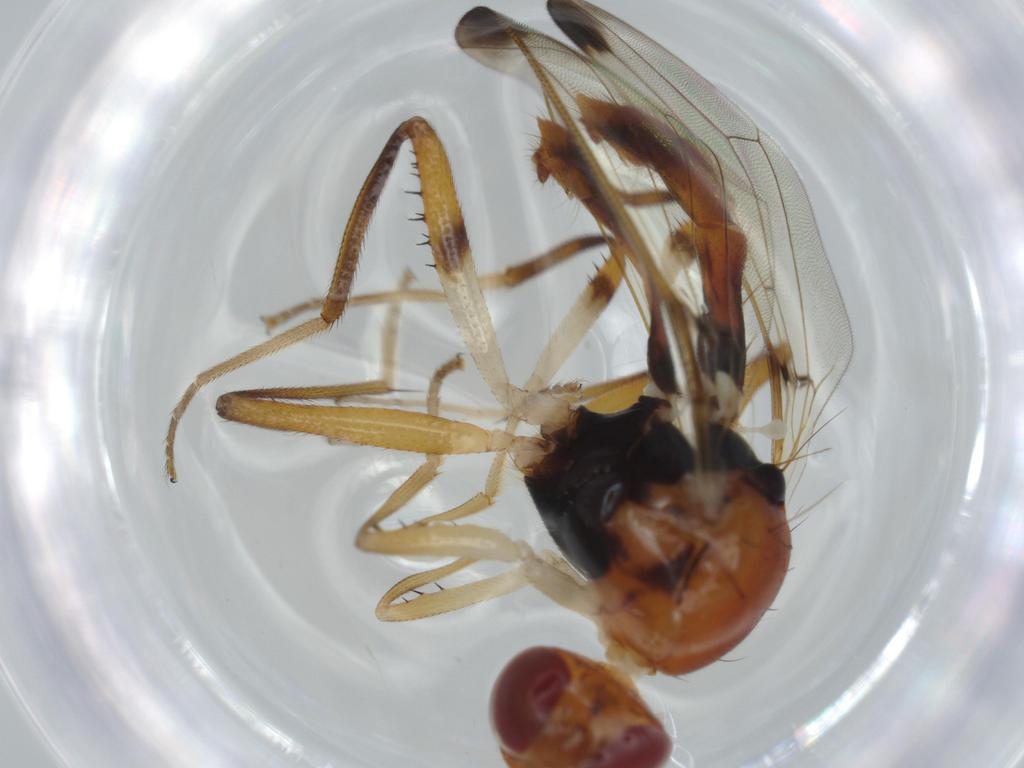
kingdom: Animalia
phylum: Arthropoda
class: Insecta
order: Diptera
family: Richardiidae
